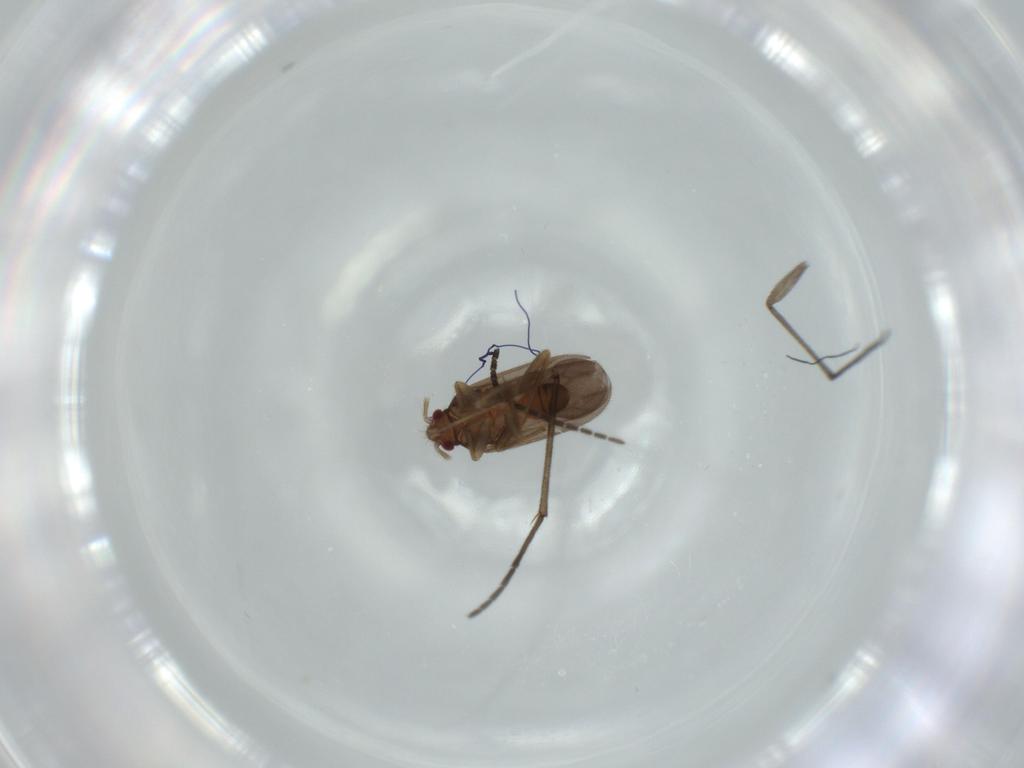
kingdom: Animalia
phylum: Arthropoda
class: Insecta
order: Hemiptera
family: Ceratocombidae
